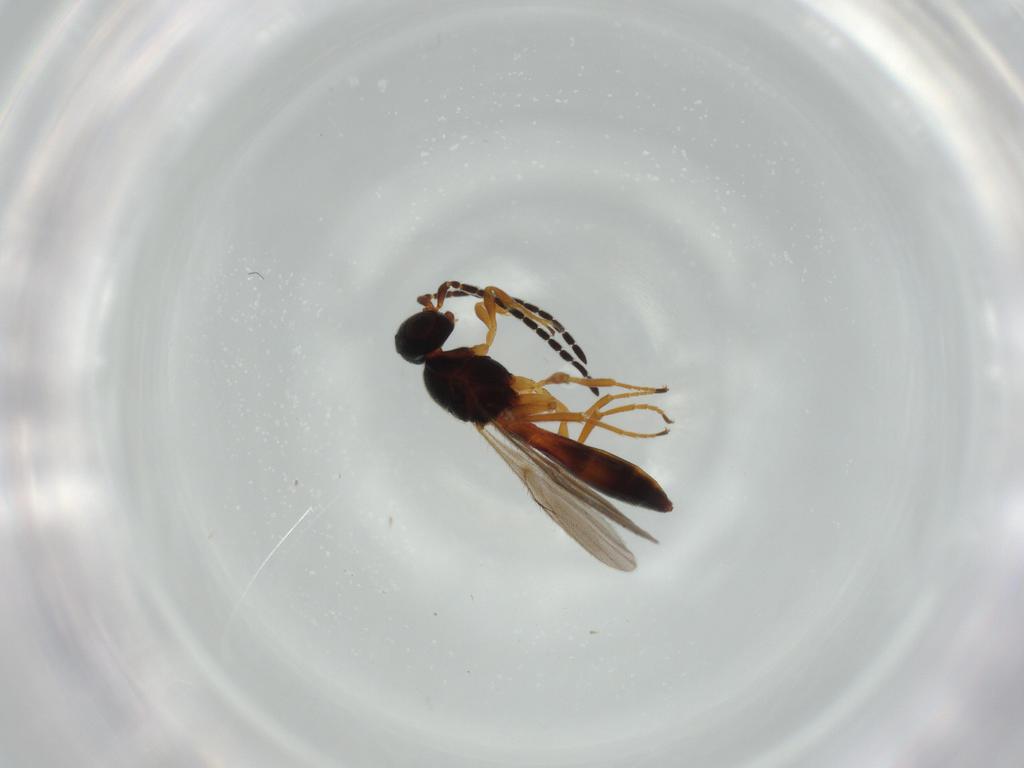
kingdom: Animalia
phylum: Arthropoda
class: Insecta
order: Hymenoptera
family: Scelionidae
